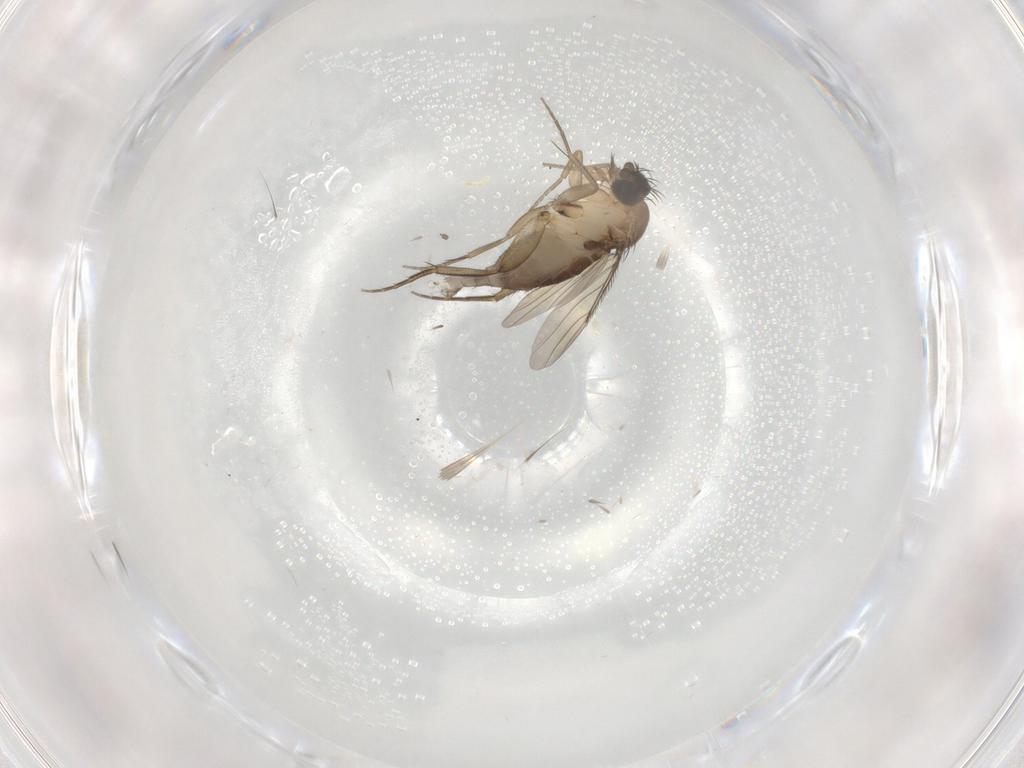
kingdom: Animalia
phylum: Arthropoda
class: Insecta
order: Diptera
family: Phoridae
